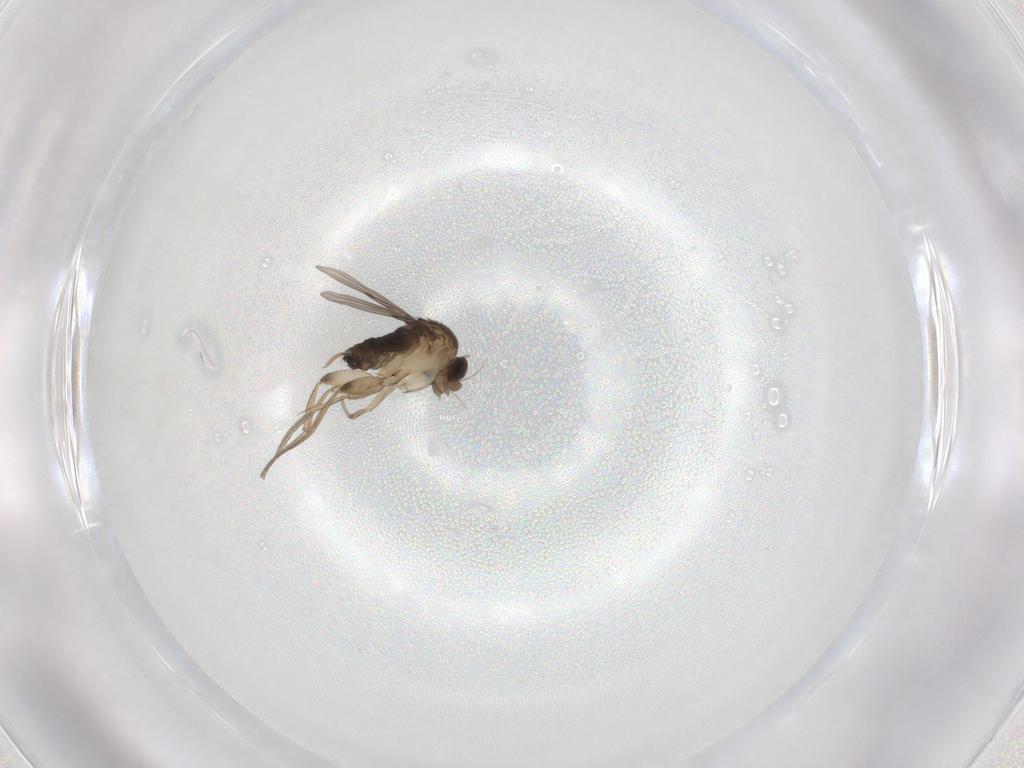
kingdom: Animalia
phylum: Arthropoda
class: Insecta
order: Diptera
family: Phoridae
